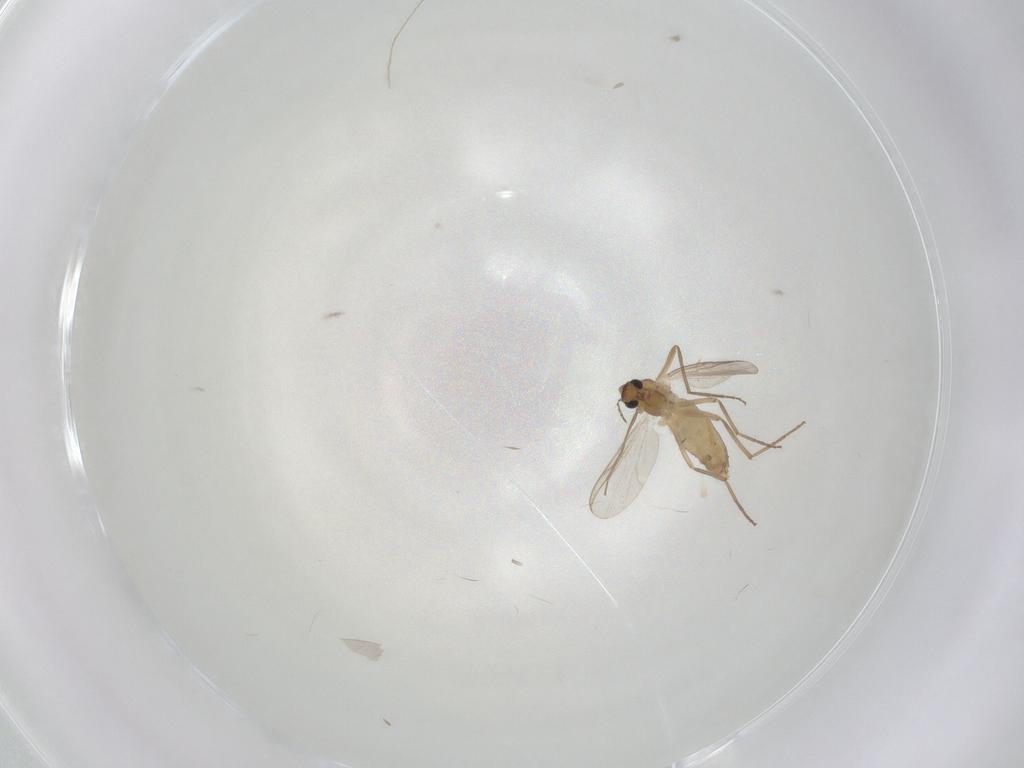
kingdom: Animalia
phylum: Arthropoda
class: Insecta
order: Diptera
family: Chironomidae
